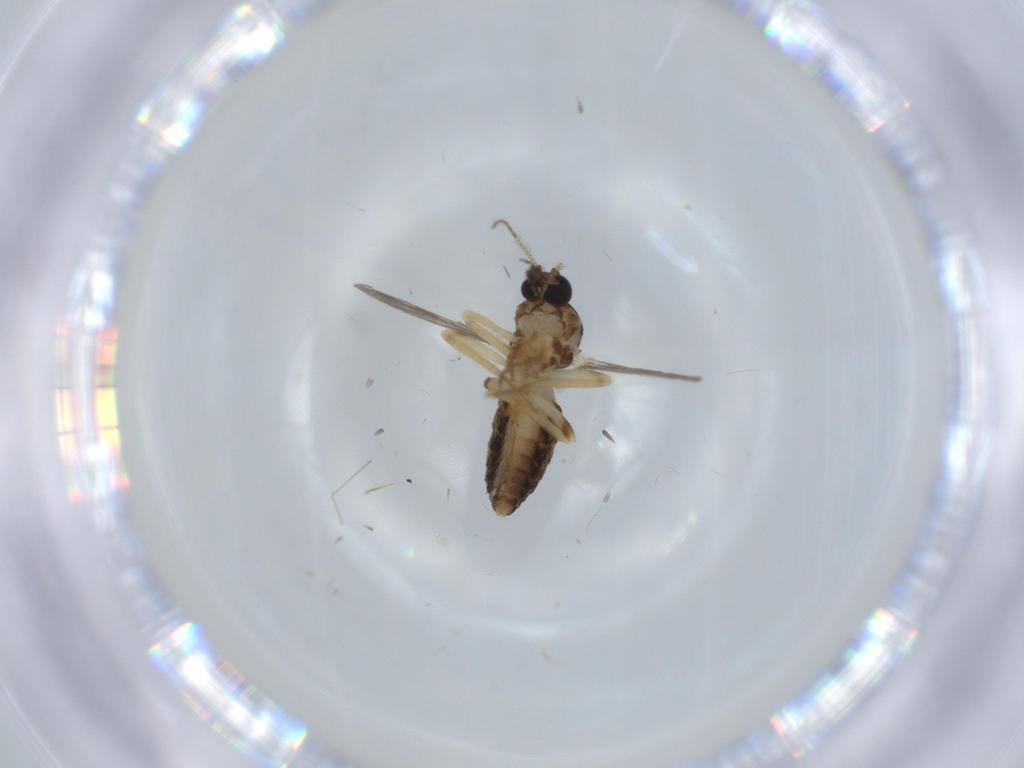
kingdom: Animalia
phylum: Arthropoda
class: Insecta
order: Diptera
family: Ceratopogonidae
